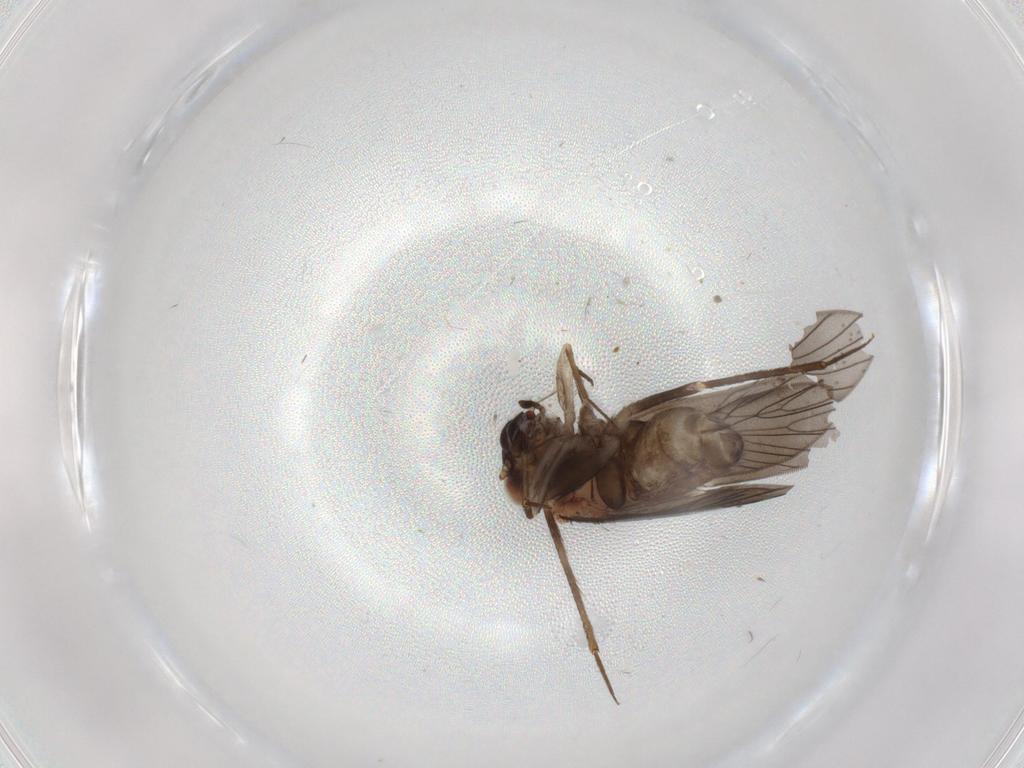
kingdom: Animalia
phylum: Arthropoda
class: Insecta
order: Psocodea
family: Lepidopsocidae
